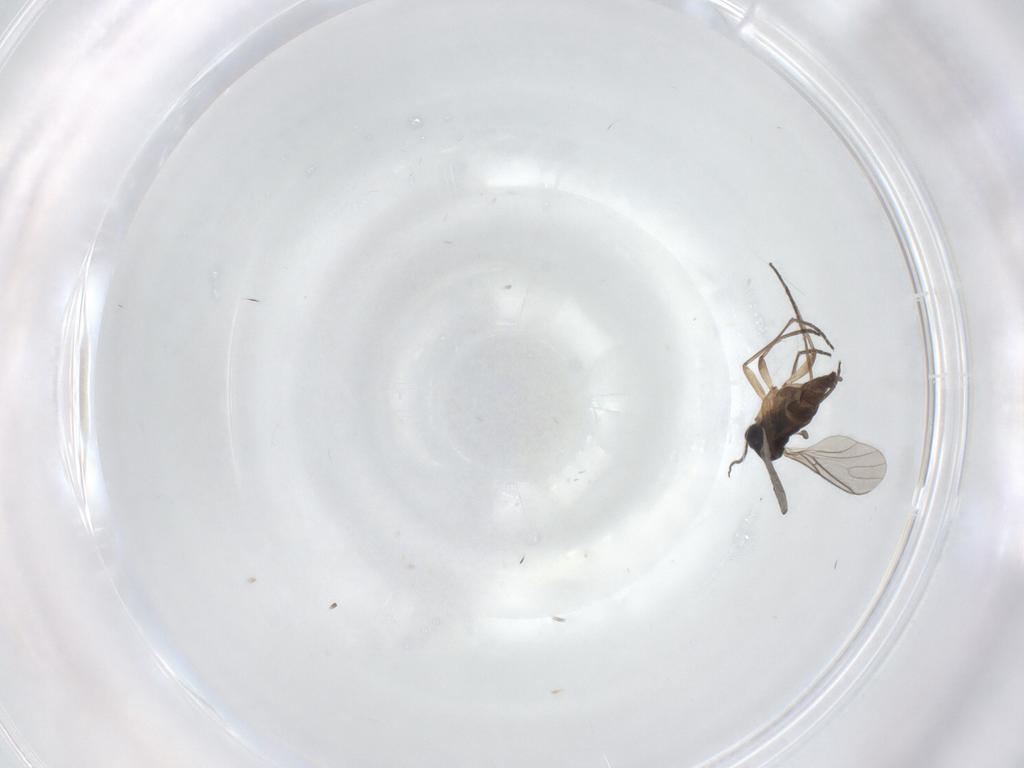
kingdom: Animalia
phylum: Arthropoda
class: Insecta
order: Diptera
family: Sciaridae
